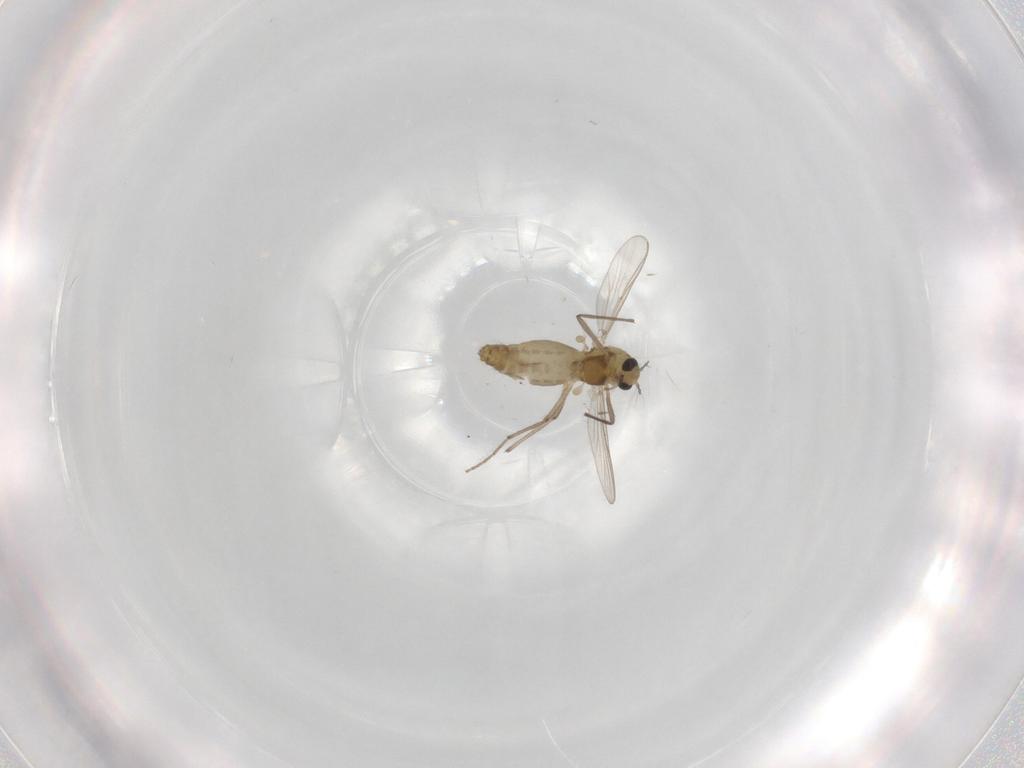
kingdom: Animalia
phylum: Arthropoda
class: Insecta
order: Diptera
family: Chironomidae
